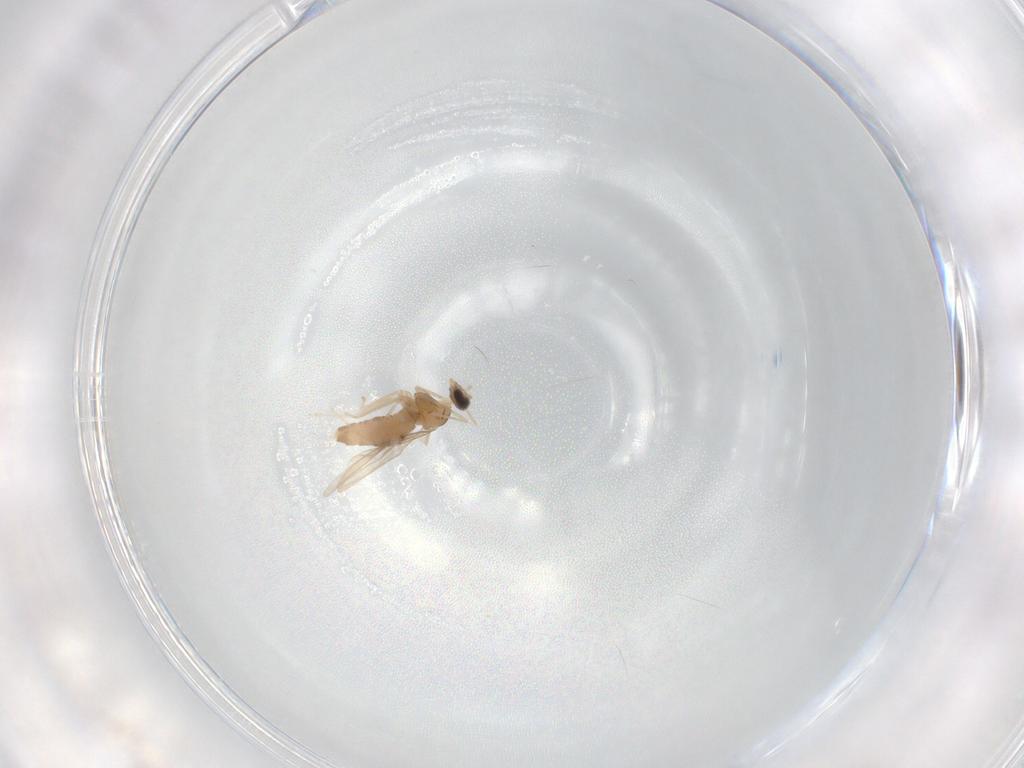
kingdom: Animalia
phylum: Arthropoda
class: Insecta
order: Diptera
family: Cecidomyiidae
